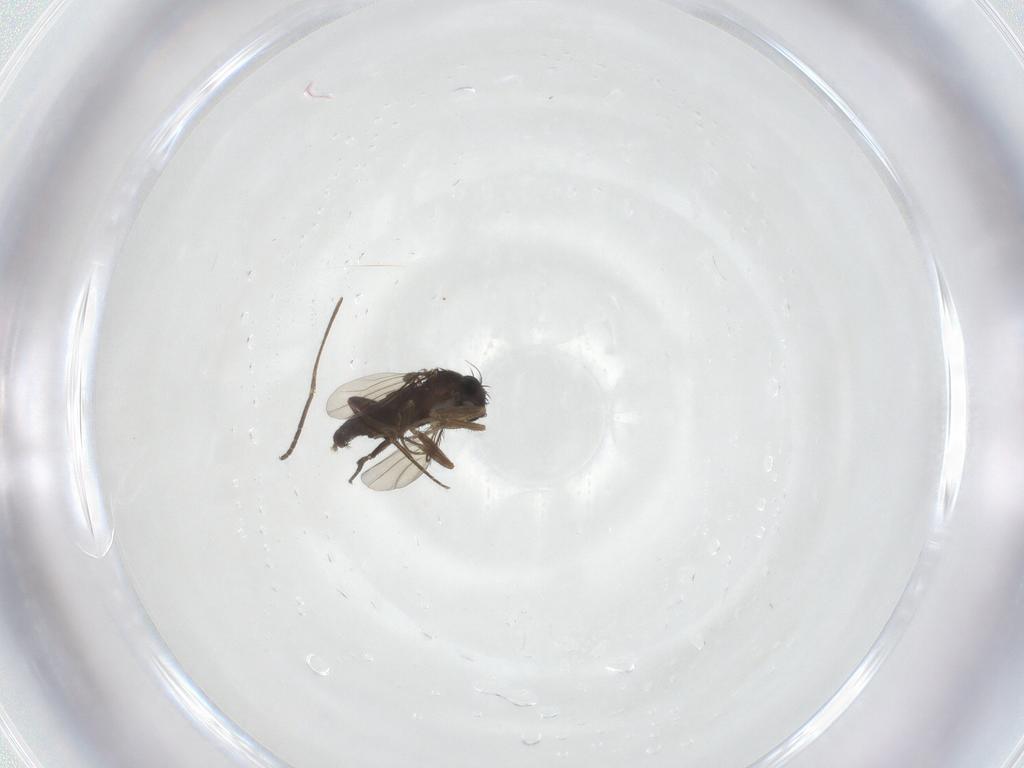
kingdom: Animalia
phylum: Arthropoda
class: Insecta
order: Diptera
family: Phoridae
